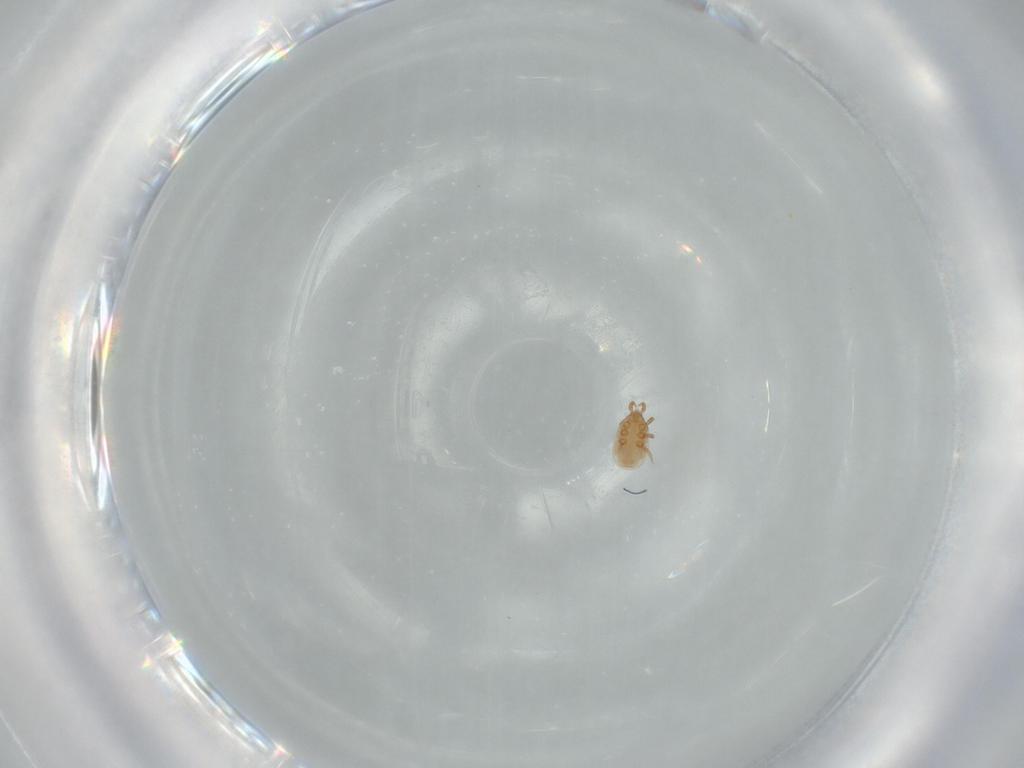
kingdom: Animalia
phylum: Arthropoda
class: Arachnida
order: Mesostigmata
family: Dinychidae
